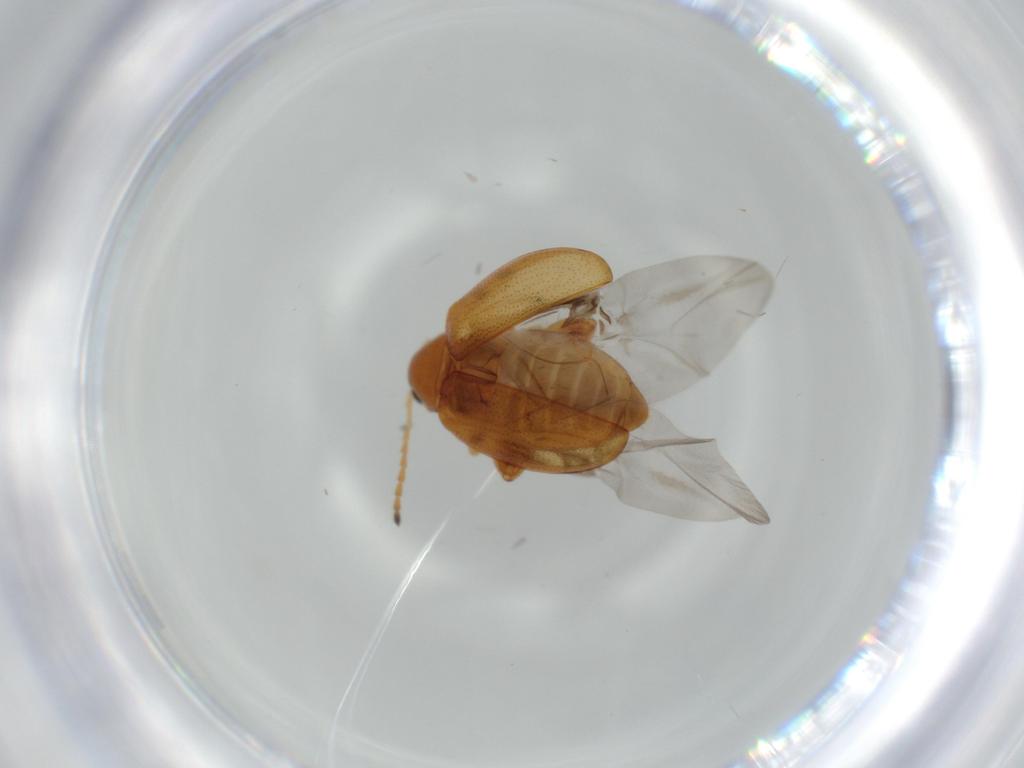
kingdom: Animalia
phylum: Arthropoda
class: Insecta
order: Coleoptera
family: Chrysomelidae
